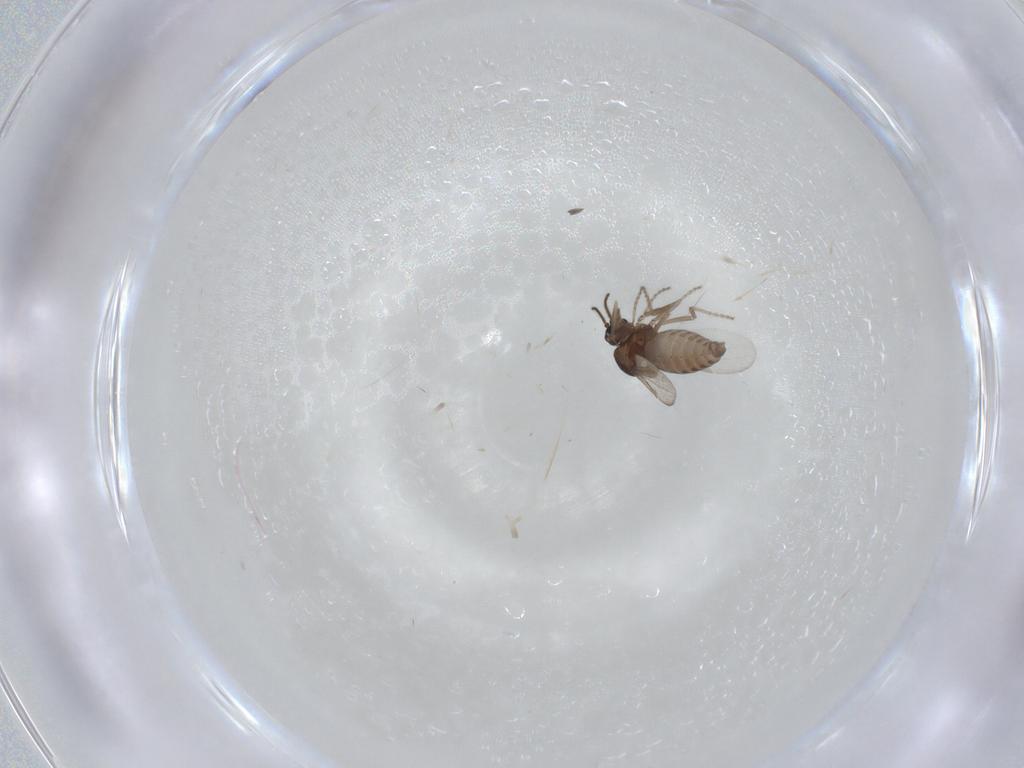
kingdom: Animalia
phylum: Arthropoda
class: Insecta
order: Diptera
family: Ceratopogonidae
